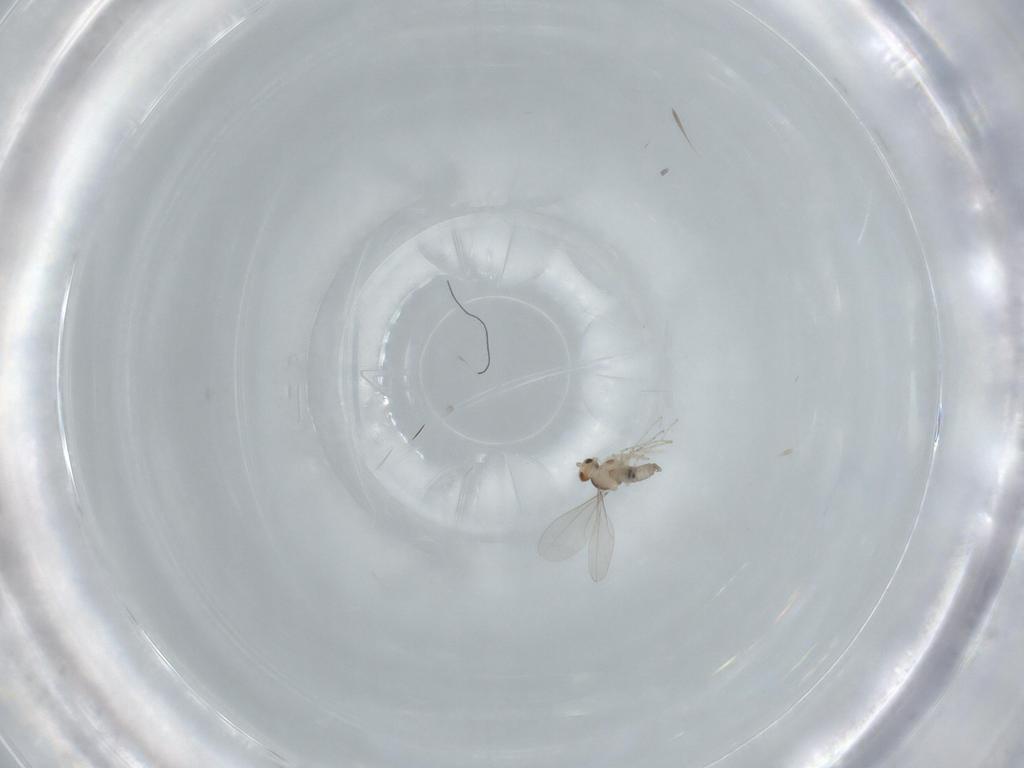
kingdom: Animalia
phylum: Arthropoda
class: Insecta
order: Diptera
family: Cecidomyiidae
